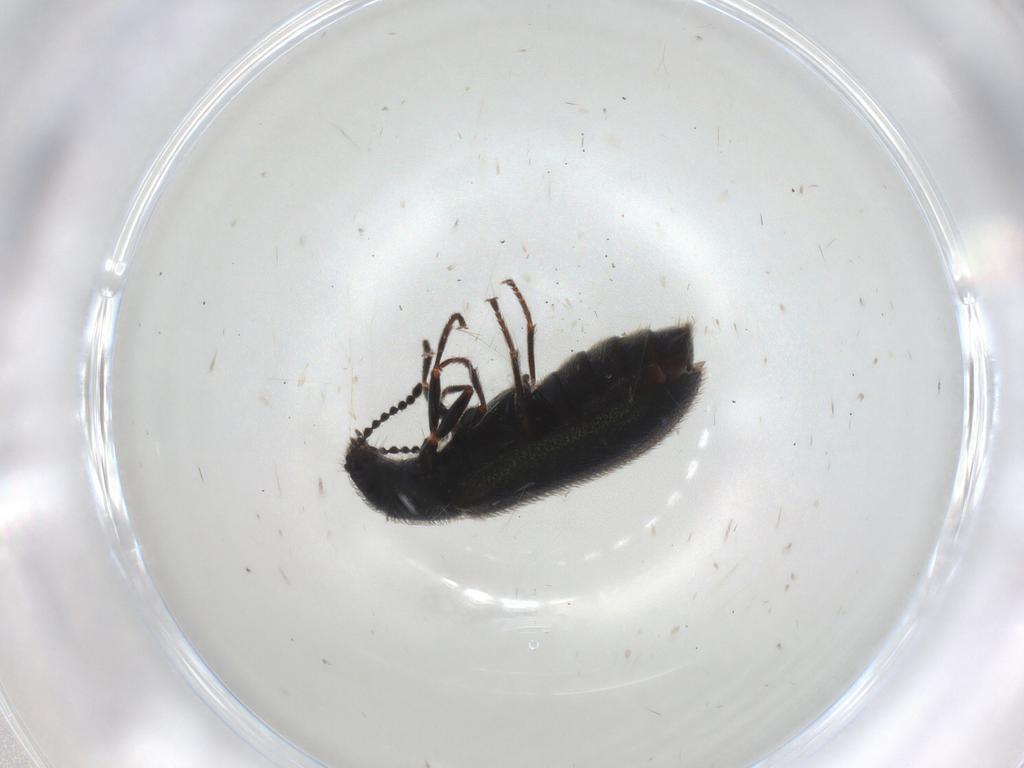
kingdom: Animalia
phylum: Arthropoda
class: Insecta
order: Coleoptera
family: Melyridae
